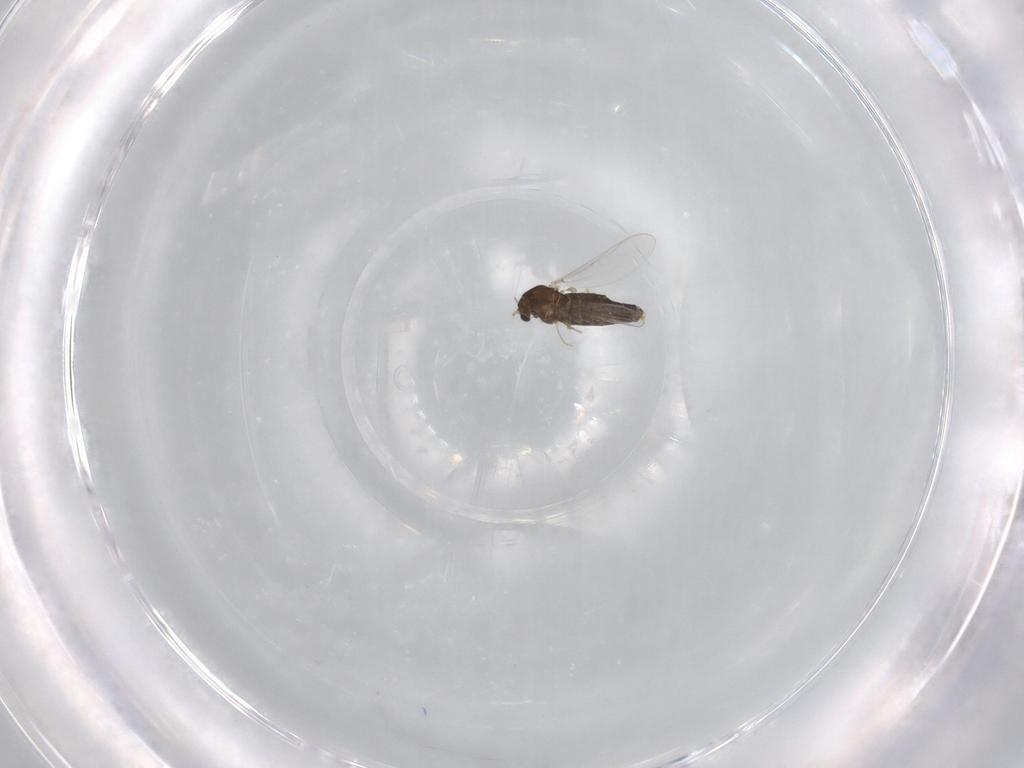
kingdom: Animalia
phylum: Arthropoda
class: Insecta
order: Diptera
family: Chironomidae
